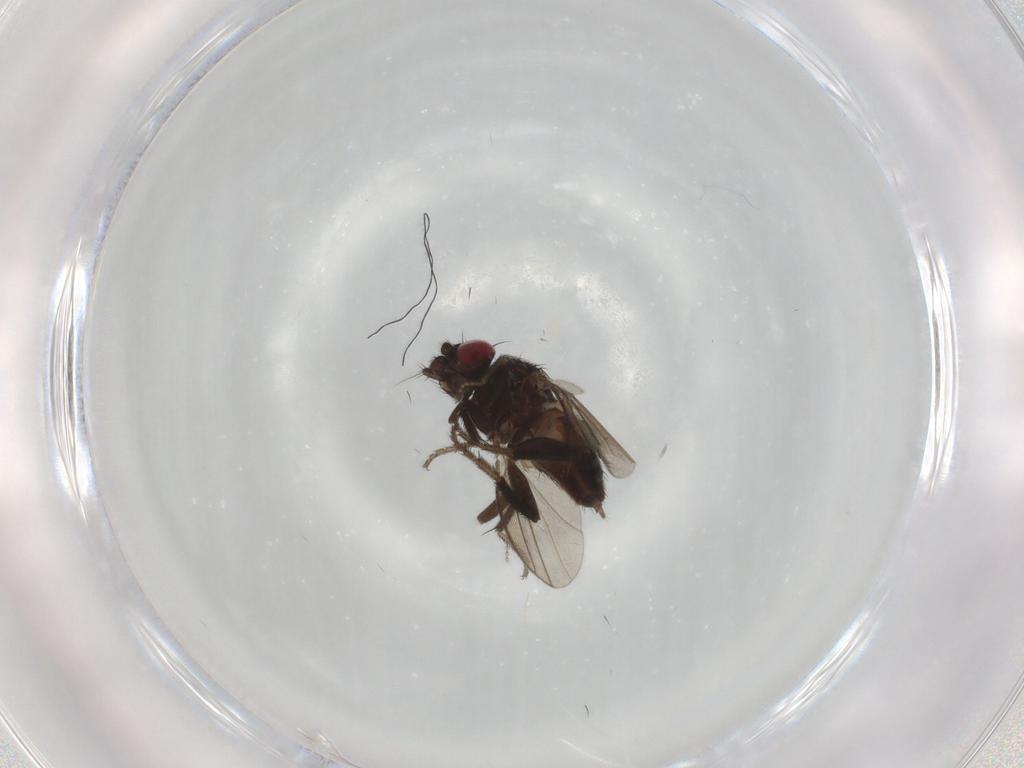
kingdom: Animalia
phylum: Arthropoda
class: Insecta
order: Diptera
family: Milichiidae
